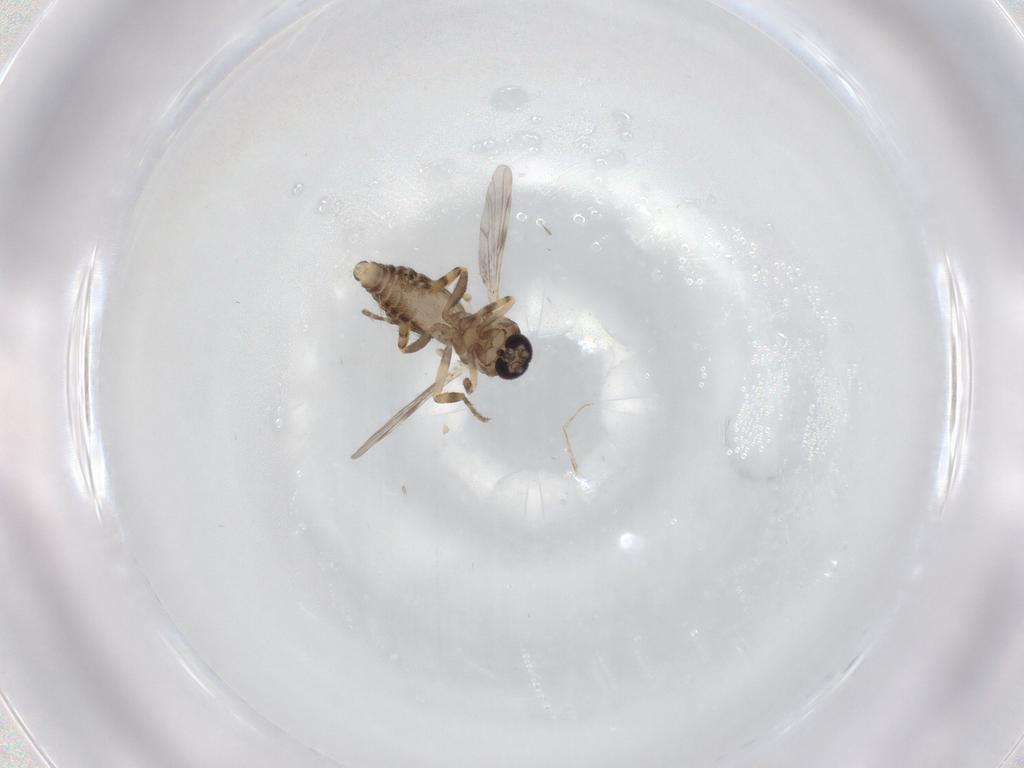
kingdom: Animalia
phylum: Arthropoda
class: Insecta
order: Diptera
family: Ceratopogonidae
